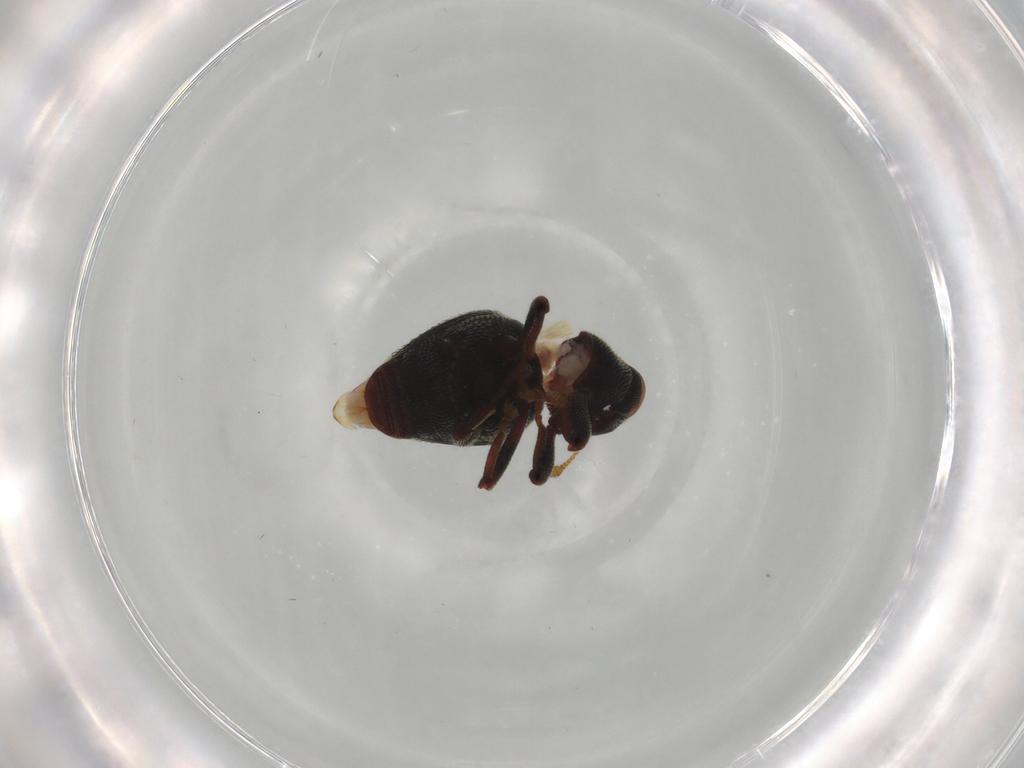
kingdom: Animalia
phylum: Arthropoda
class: Insecta
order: Coleoptera
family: Curculionidae
